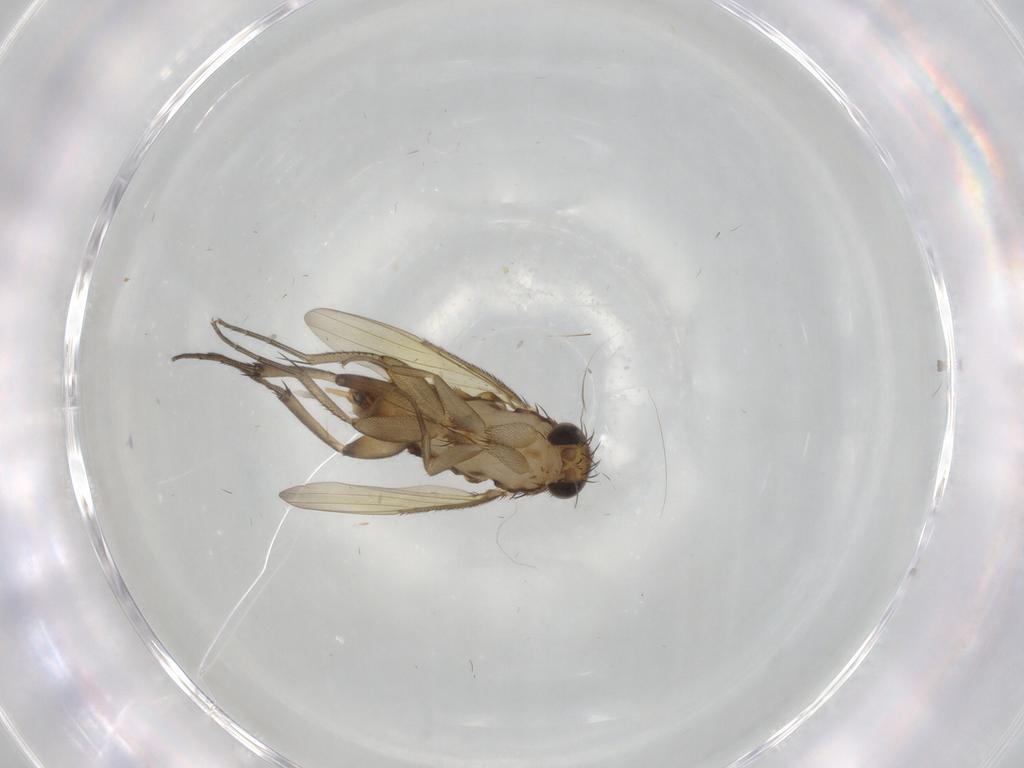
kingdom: Animalia
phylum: Arthropoda
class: Insecta
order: Diptera
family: Phoridae
